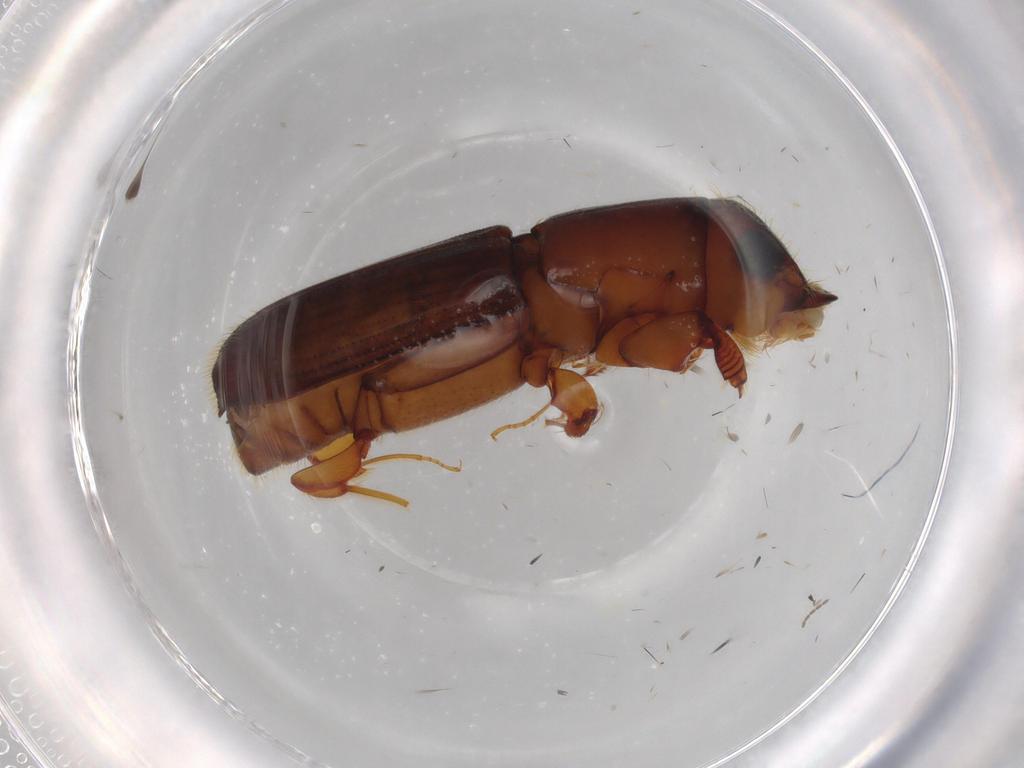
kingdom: Animalia
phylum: Arthropoda
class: Insecta
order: Coleoptera
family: Curculionidae
